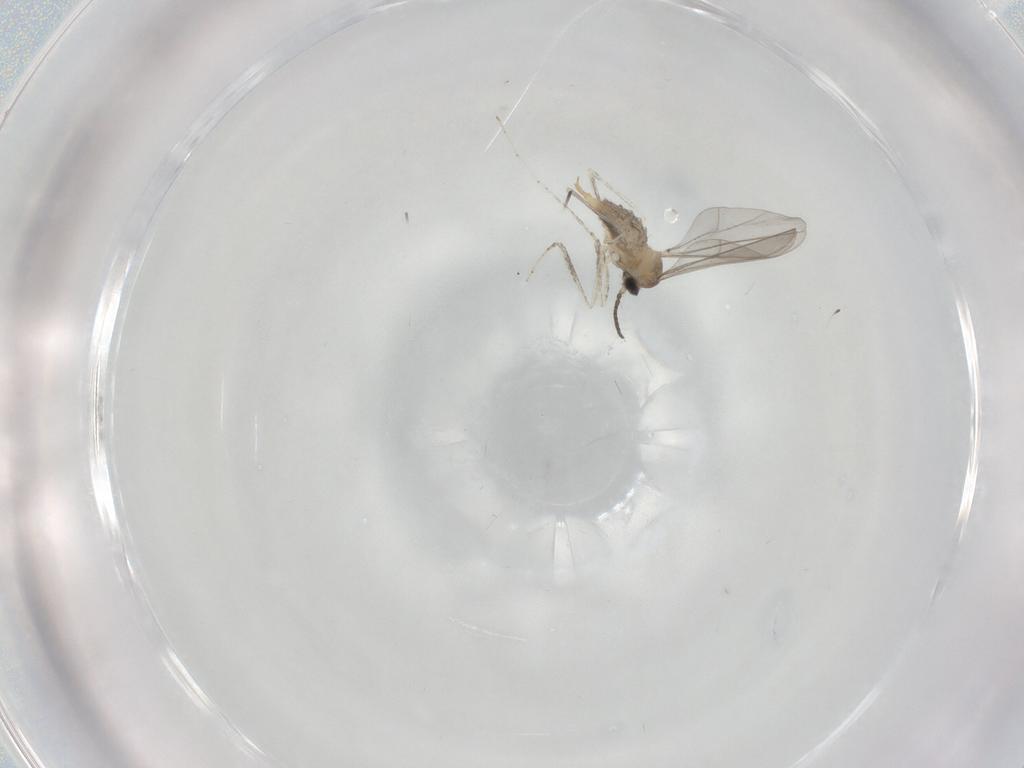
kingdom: Animalia
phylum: Arthropoda
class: Insecta
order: Diptera
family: Cecidomyiidae
